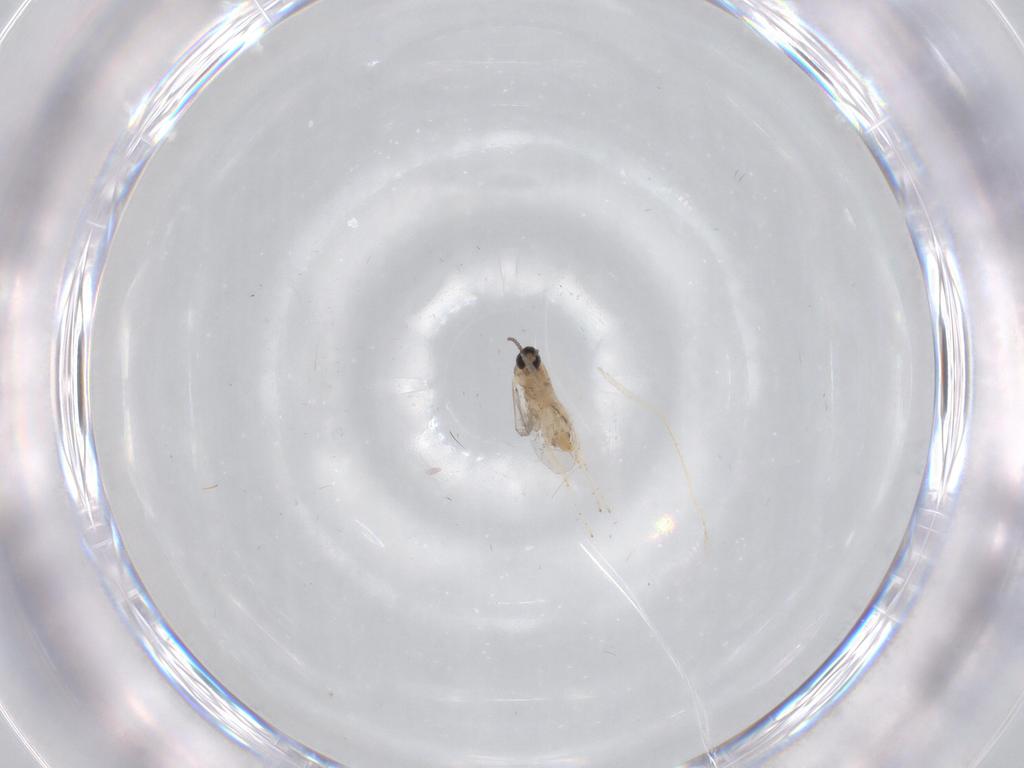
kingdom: Animalia
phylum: Arthropoda
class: Insecta
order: Diptera
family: Cecidomyiidae
